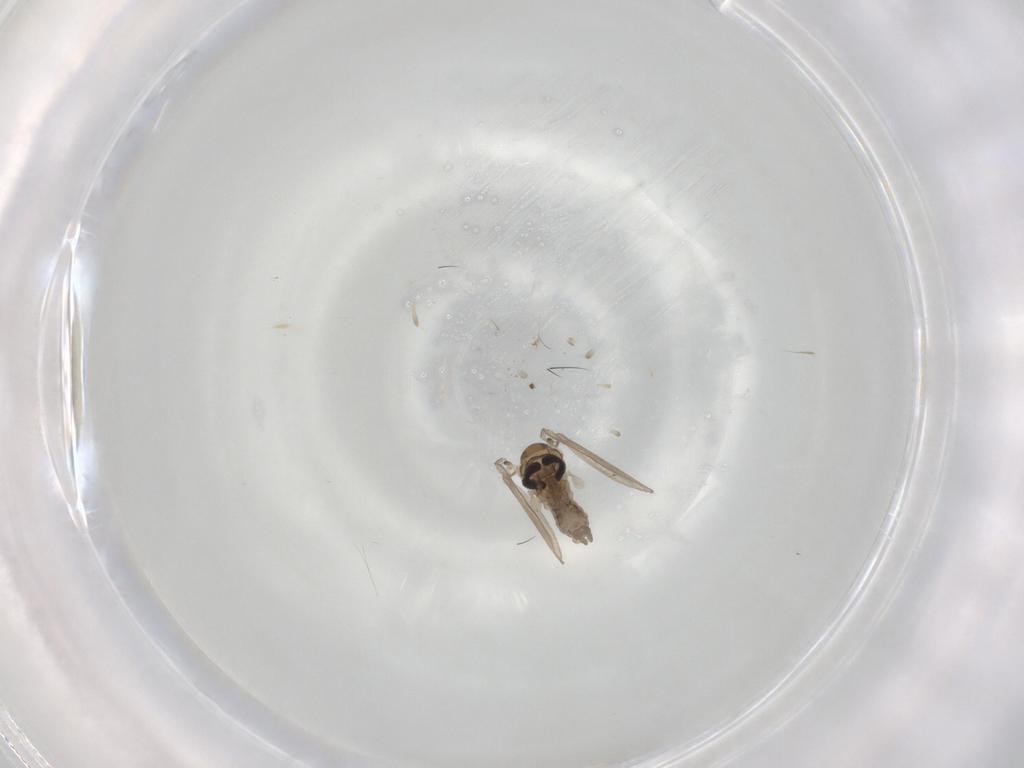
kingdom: Animalia
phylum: Arthropoda
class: Insecta
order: Diptera
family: Psychodidae
